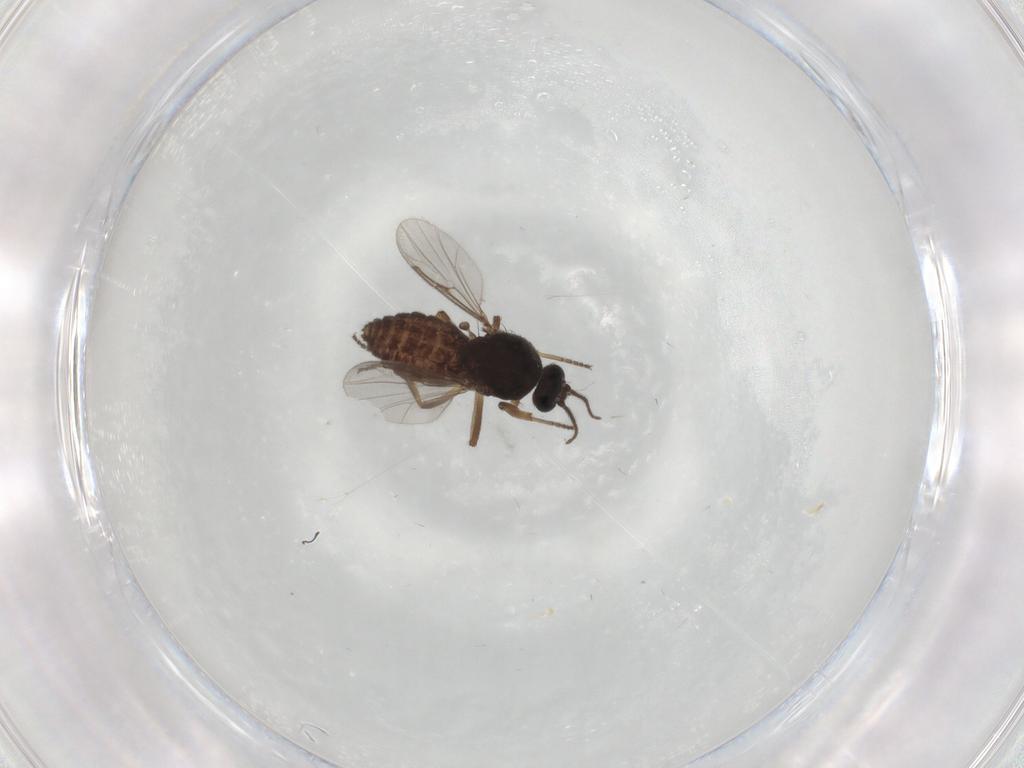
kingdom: Animalia
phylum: Arthropoda
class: Insecta
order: Diptera
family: Ceratopogonidae
